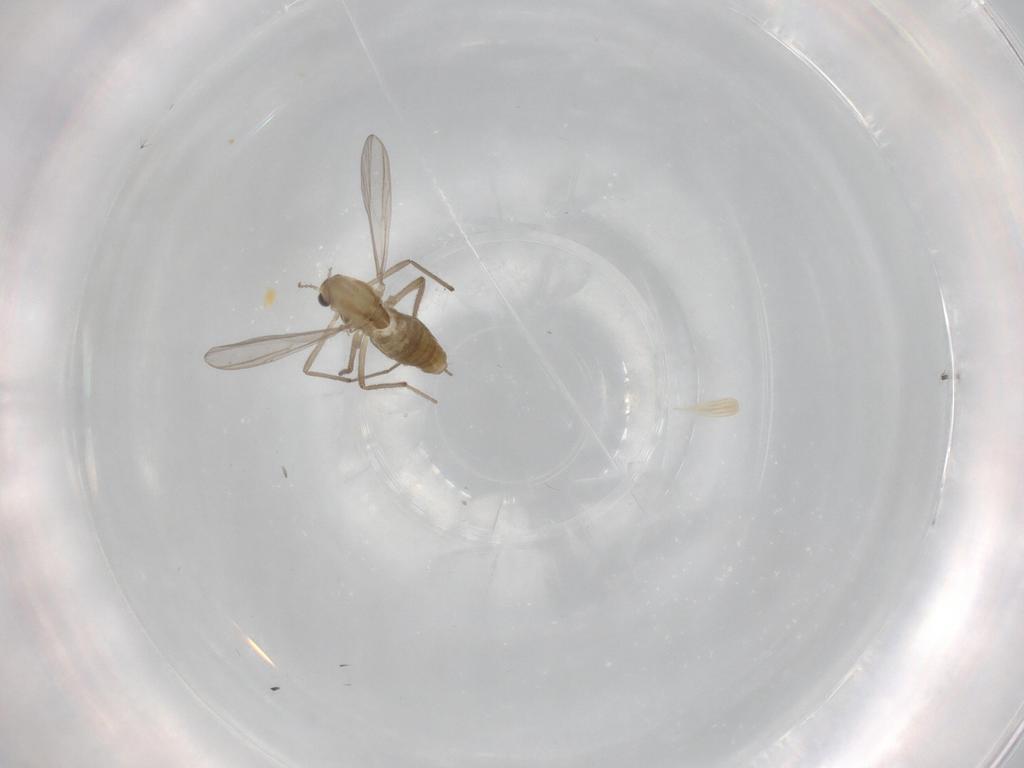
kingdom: Animalia
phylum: Arthropoda
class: Insecta
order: Diptera
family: Chironomidae
